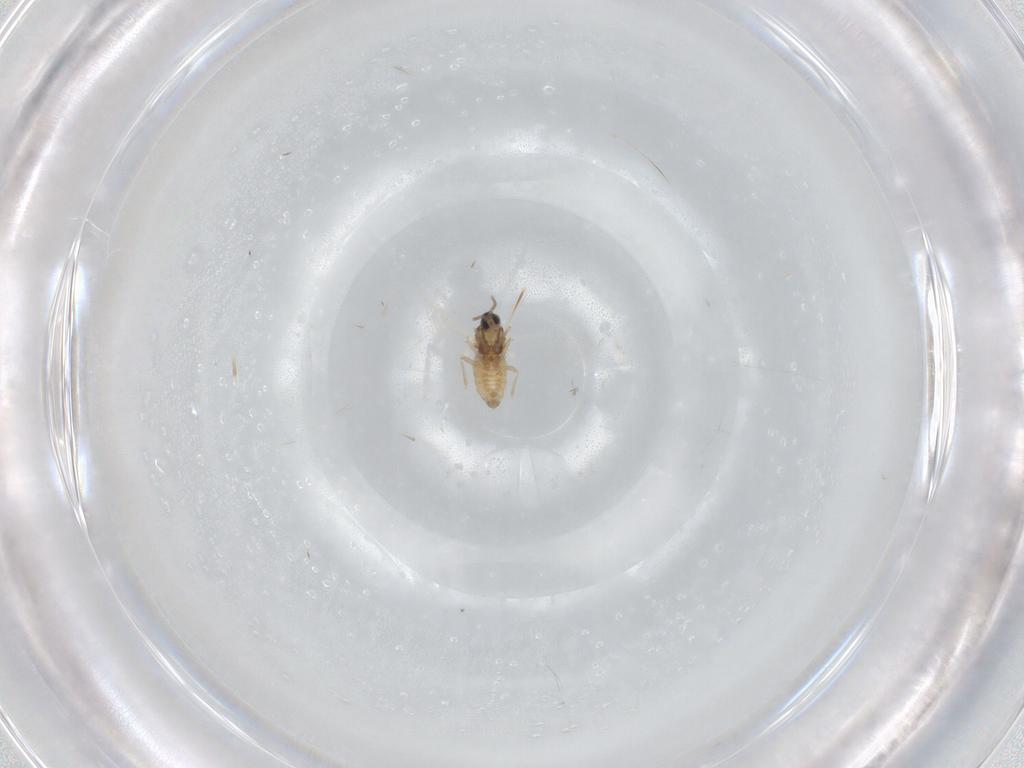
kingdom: Animalia
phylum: Arthropoda
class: Insecta
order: Diptera
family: Cecidomyiidae
